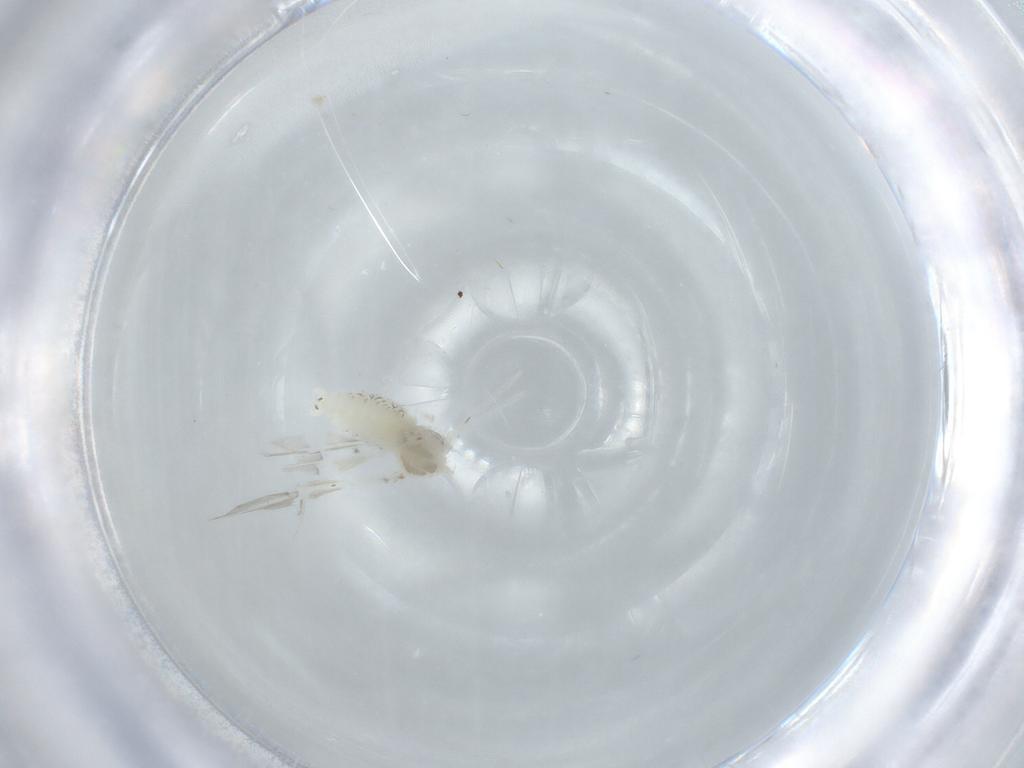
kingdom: Animalia
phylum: Arthropoda
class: Insecta
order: Diptera
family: Cecidomyiidae
